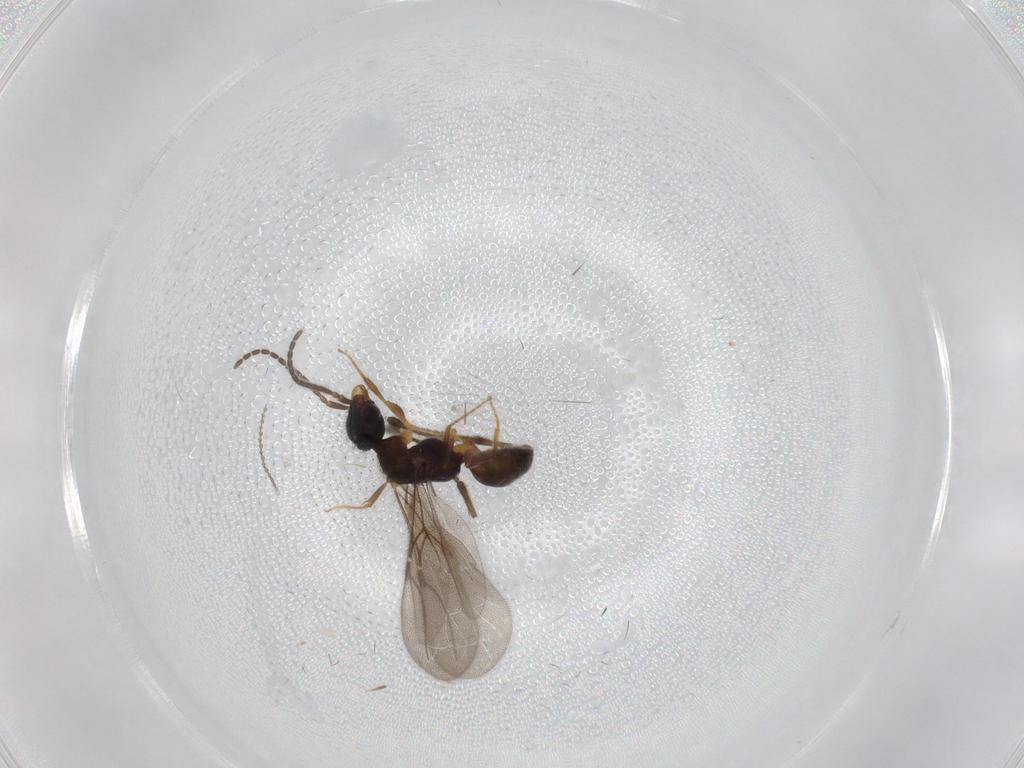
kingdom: Animalia
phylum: Arthropoda
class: Insecta
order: Hymenoptera
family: Bethylidae
